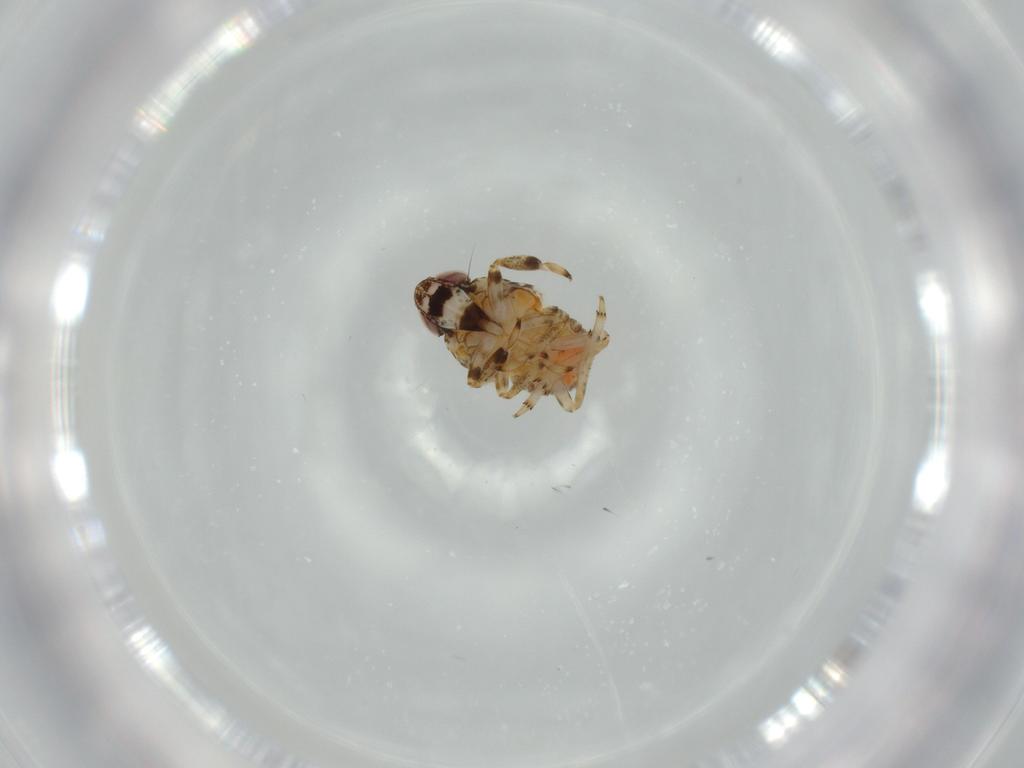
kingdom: Animalia
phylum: Arthropoda
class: Insecta
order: Hemiptera
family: Issidae
